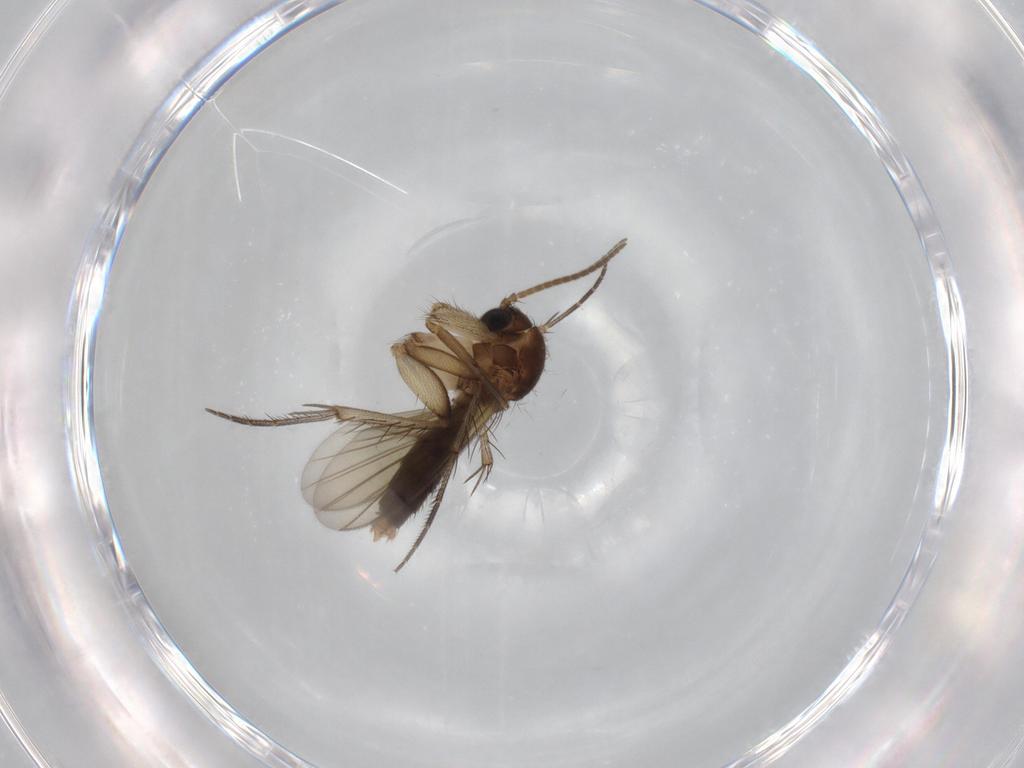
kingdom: Animalia
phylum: Arthropoda
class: Insecta
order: Diptera
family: Mycetophilidae
